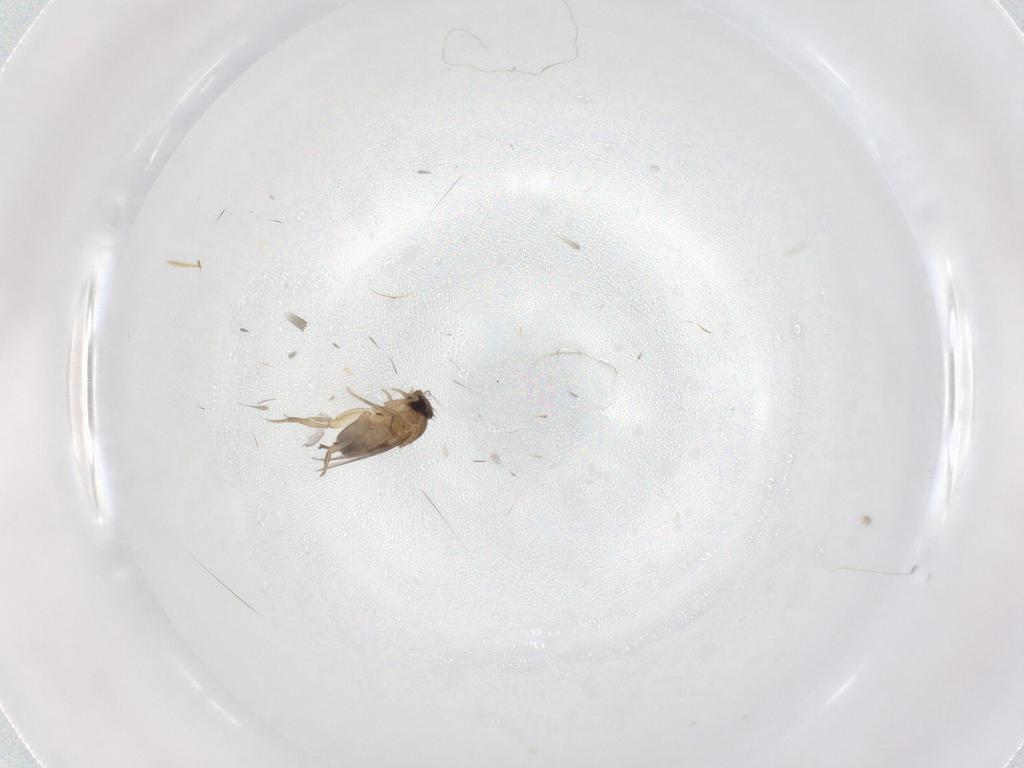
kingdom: Animalia
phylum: Arthropoda
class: Insecta
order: Diptera
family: Phoridae
